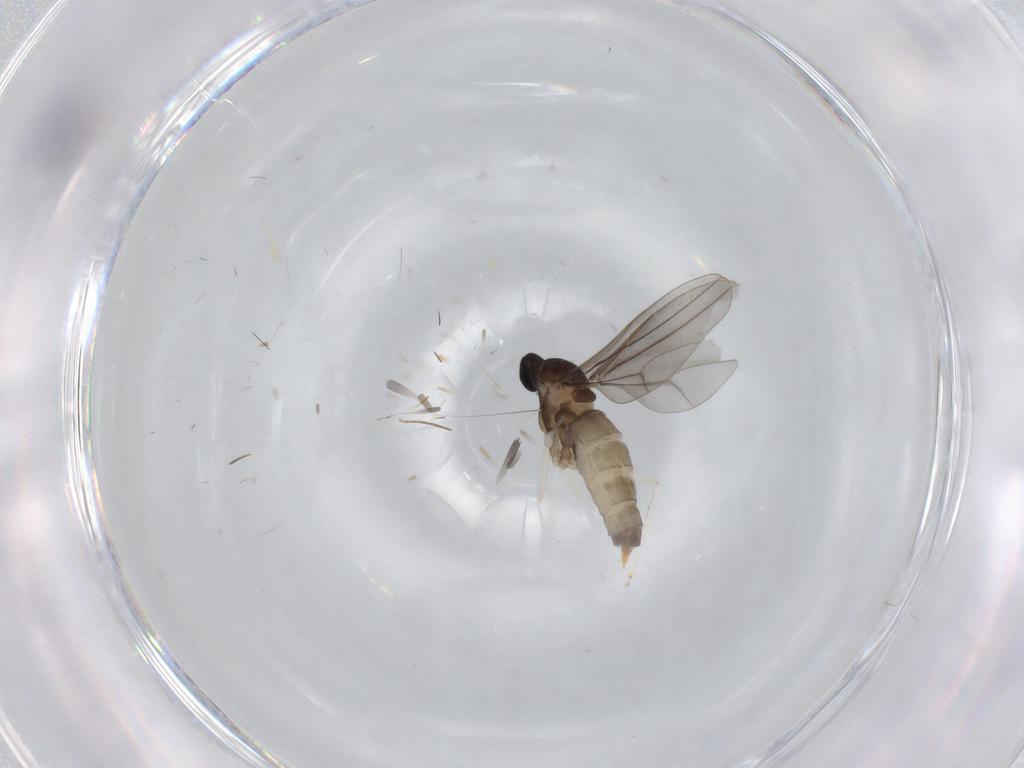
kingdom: Animalia
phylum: Arthropoda
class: Insecta
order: Diptera
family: Cecidomyiidae
